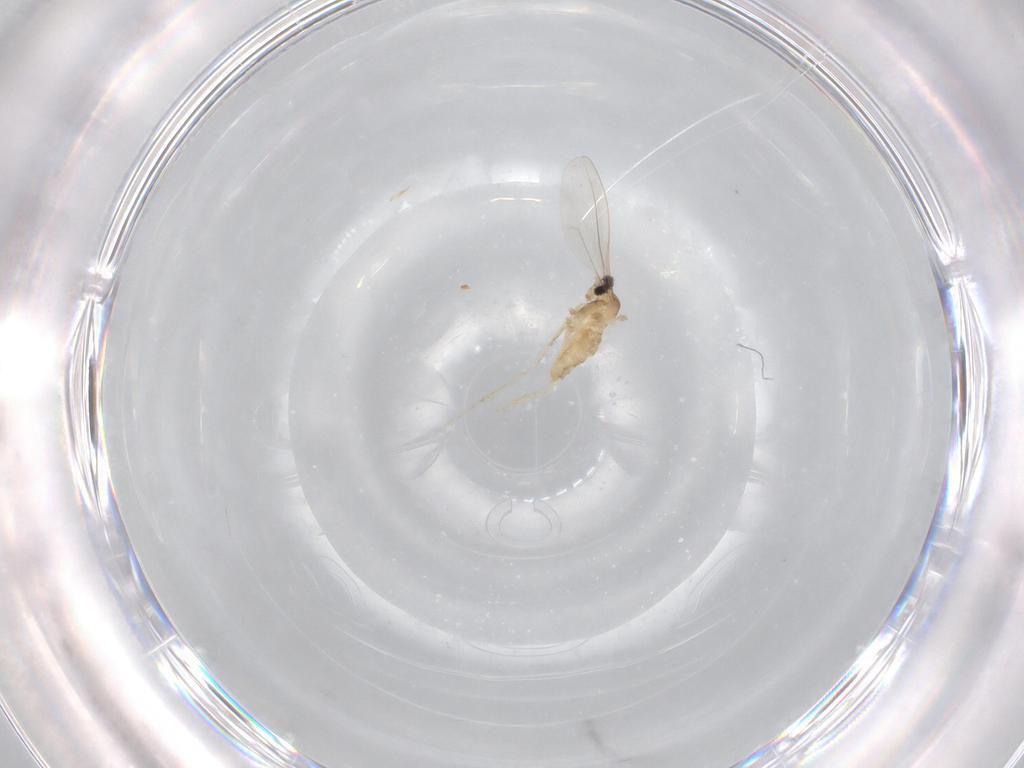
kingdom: Animalia
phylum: Arthropoda
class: Insecta
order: Diptera
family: Cecidomyiidae
